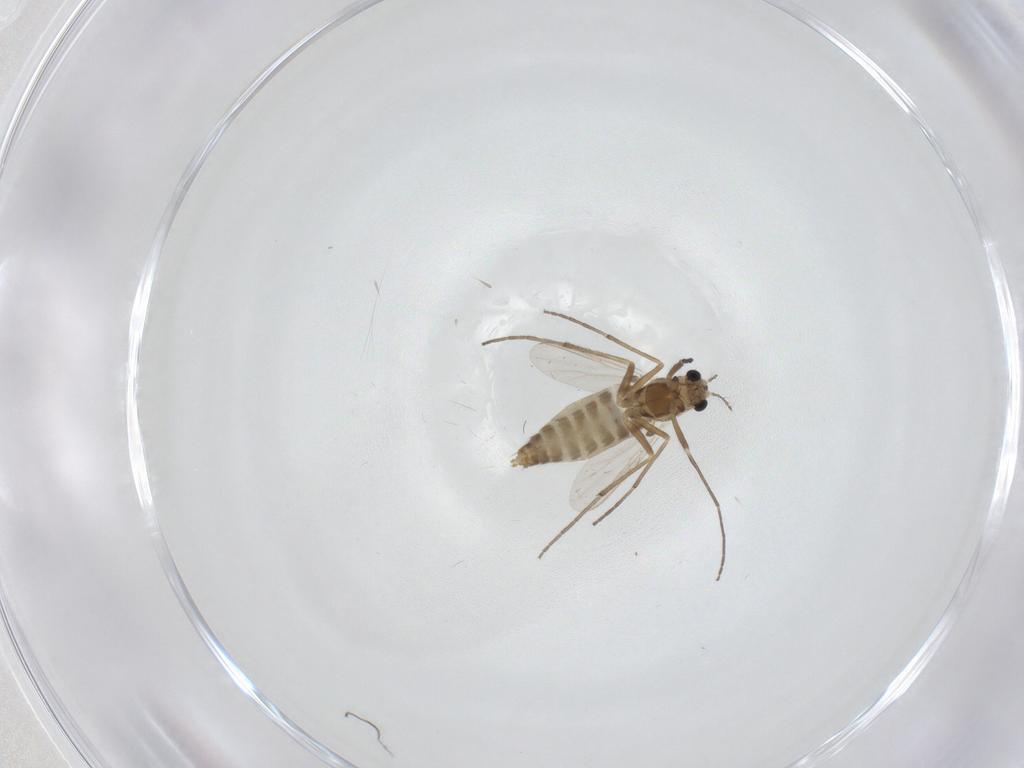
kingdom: Animalia
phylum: Arthropoda
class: Insecta
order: Diptera
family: Chironomidae
